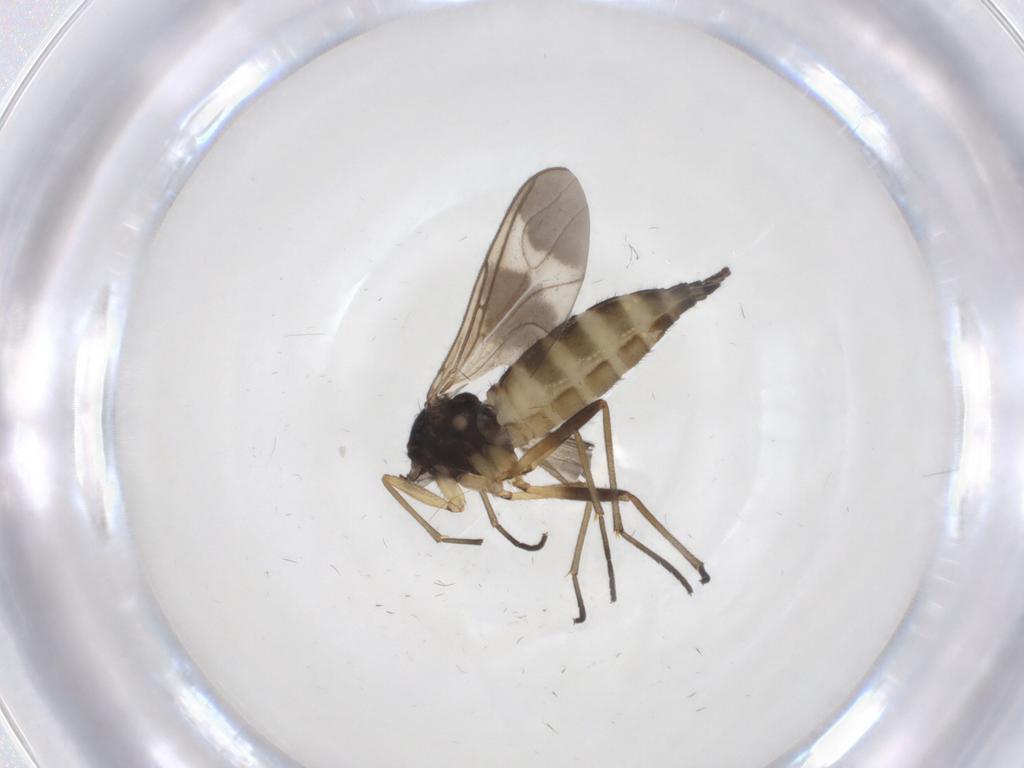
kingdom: Animalia
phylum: Arthropoda
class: Insecta
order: Diptera
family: Sciaridae
